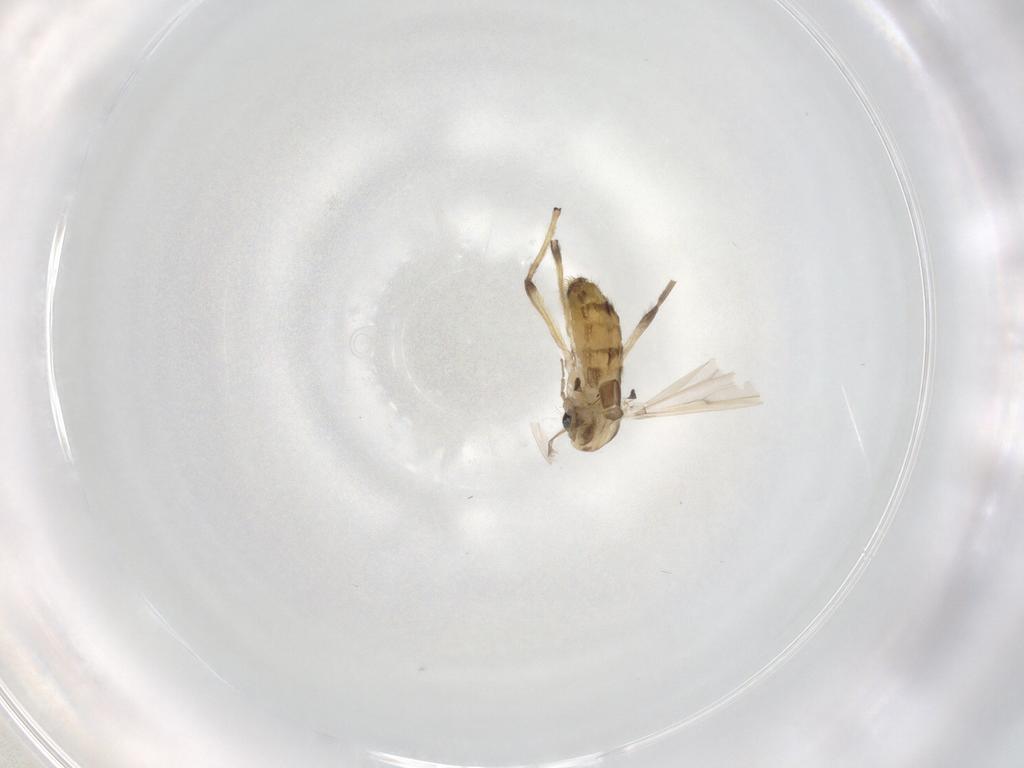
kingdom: Animalia
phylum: Arthropoda
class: Insecta
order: Diptera
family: Chironomidae
